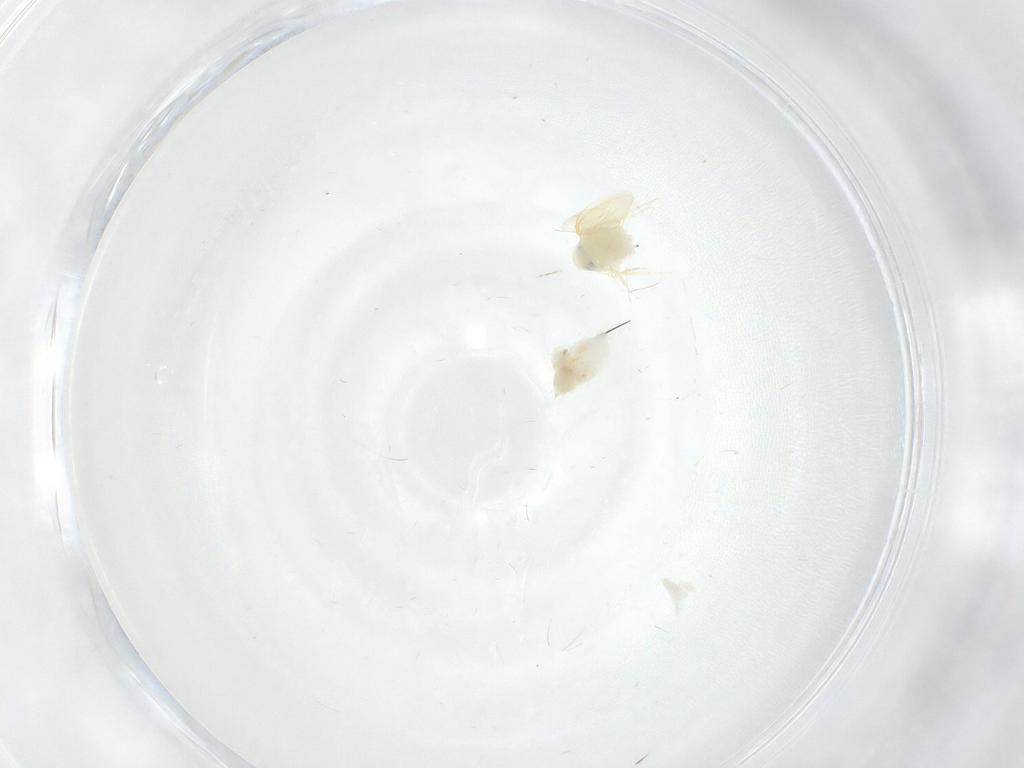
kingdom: Animalia
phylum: Arthropoda
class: Insecta
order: Hemiptera
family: Aleyrodidae
